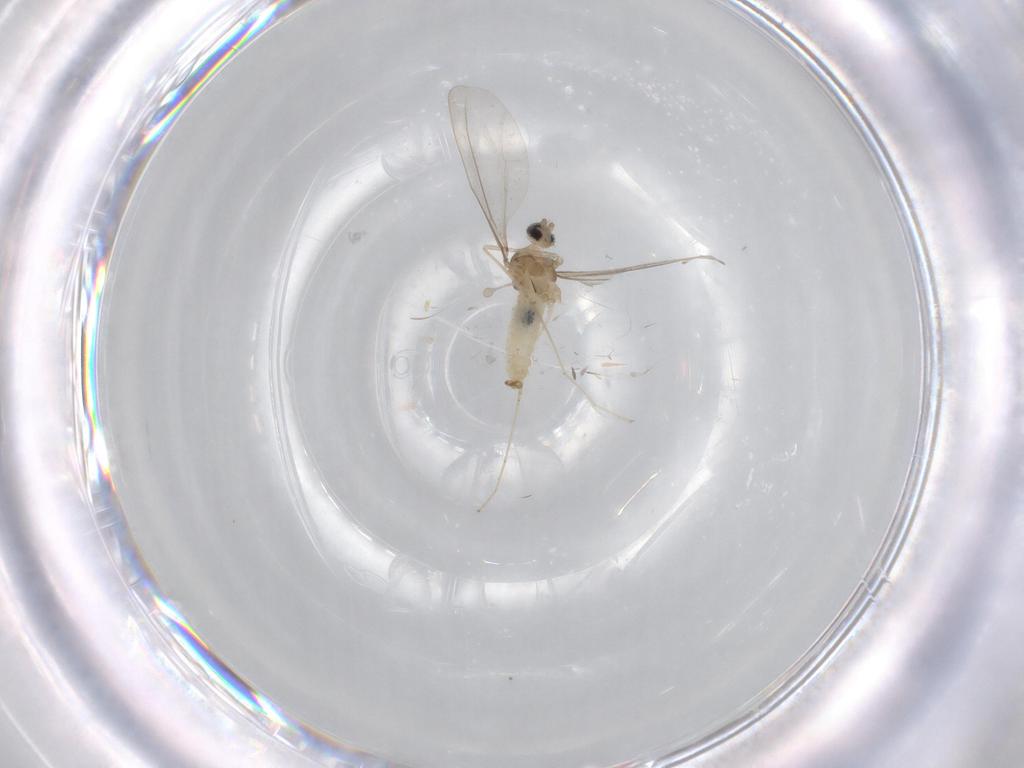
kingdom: Animalia
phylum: Arthropoda
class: Insecta
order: Diptera
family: Cecidomyiidae
